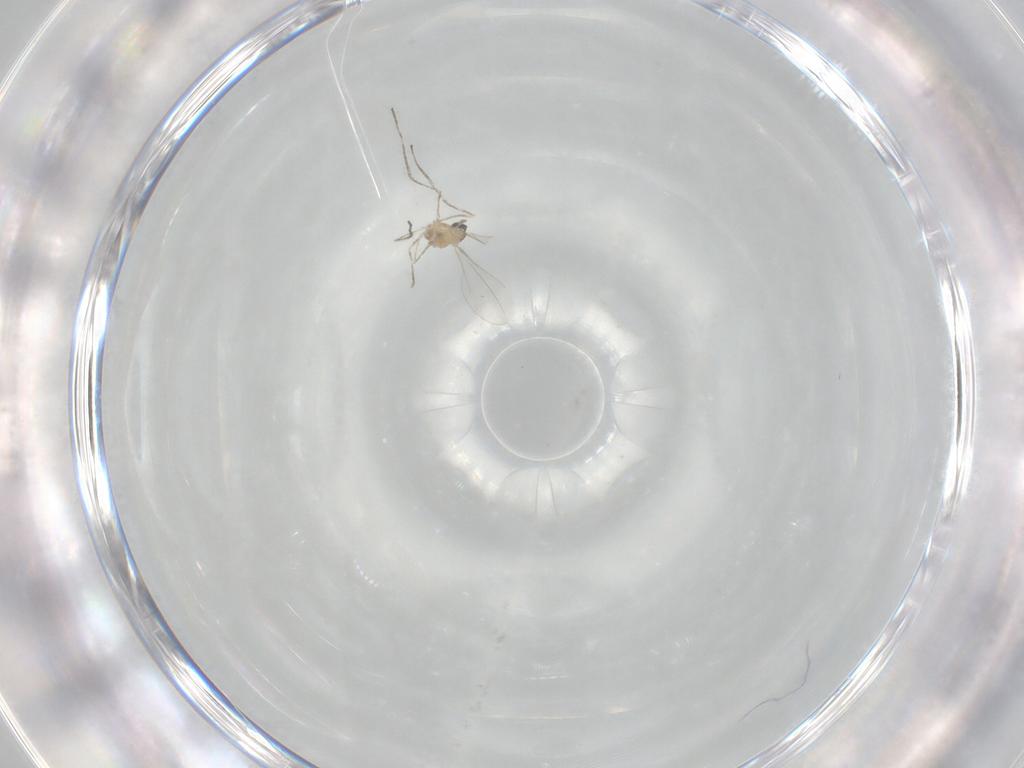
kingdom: Animalia
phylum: Arthropoda
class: Insecta
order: Diptera
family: Cecidomyiidae
